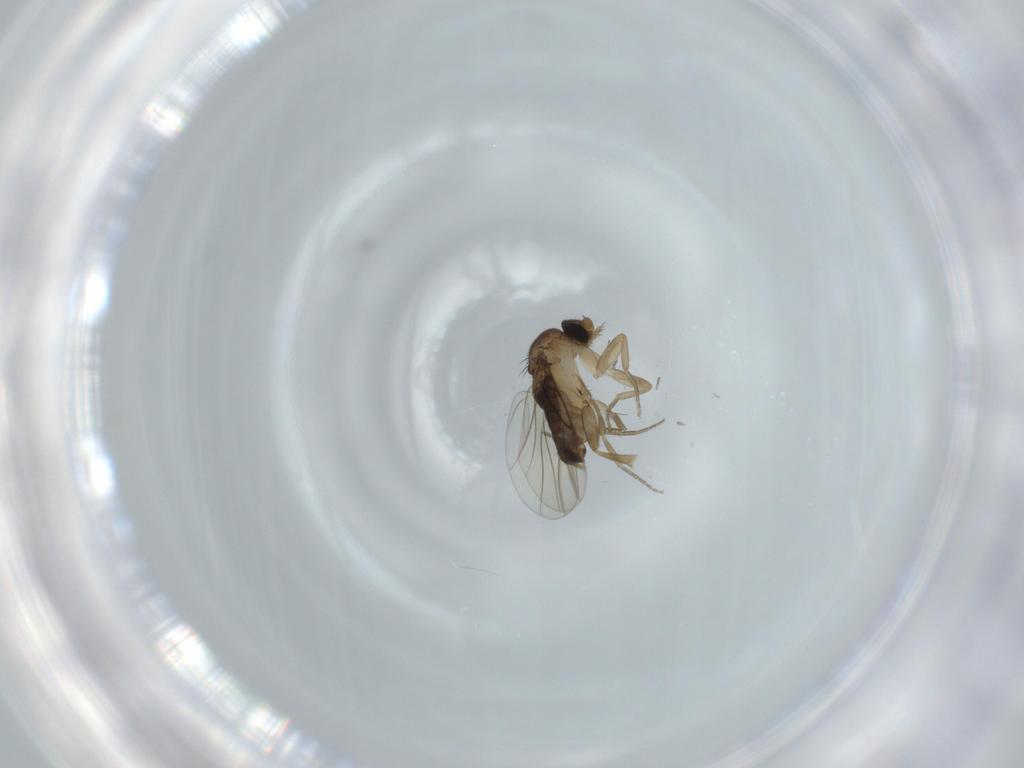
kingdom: Animalia
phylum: Arthropoda
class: Insecta
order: Diptera
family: Phoridae
